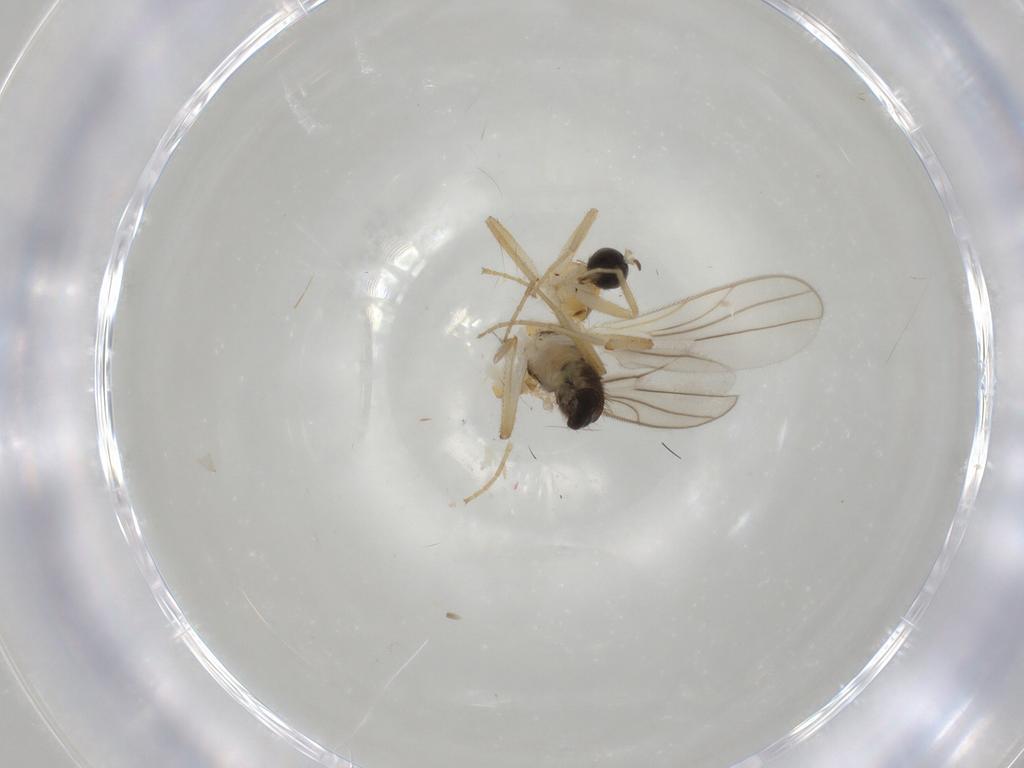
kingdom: Animalia
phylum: Arthropoda
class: Insecta
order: Diptera
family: Hybotidae
